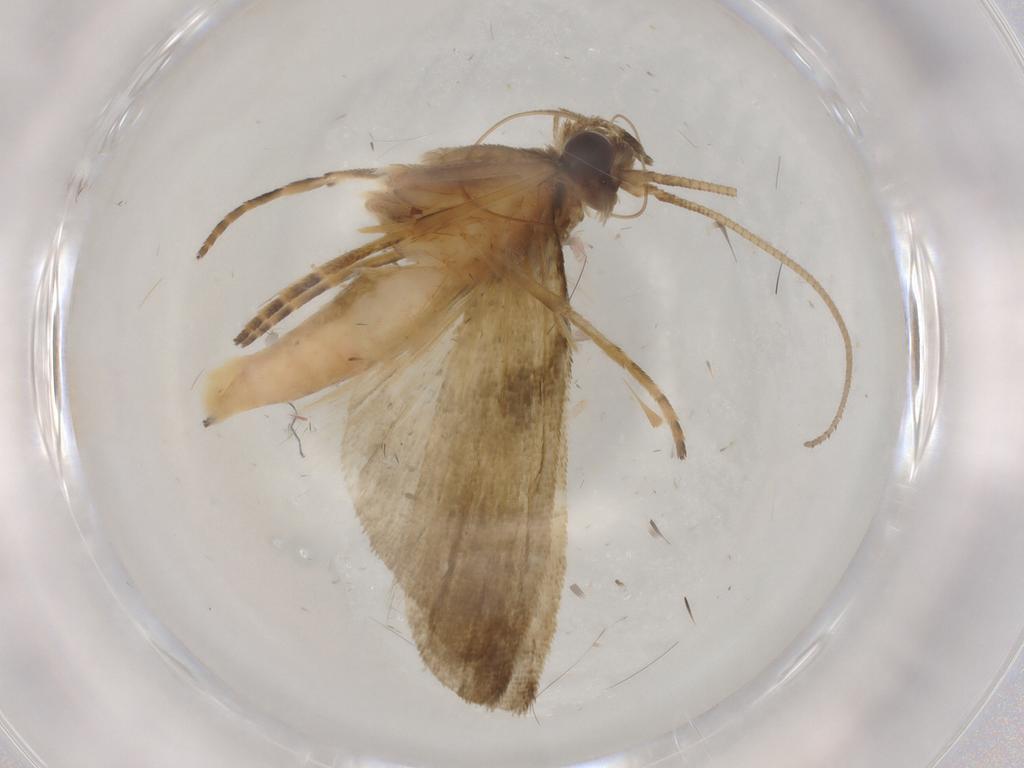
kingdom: Animalia
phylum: Arthropoda
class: Insecta
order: Lepidoptera
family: Noctuidae
